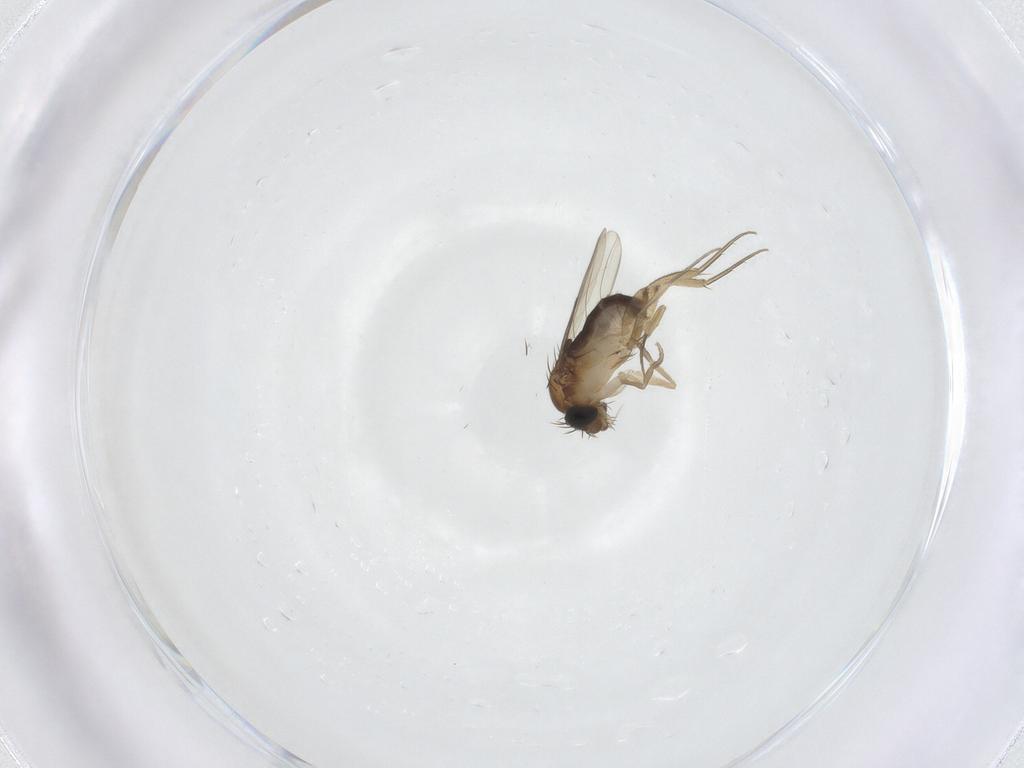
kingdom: Animalia
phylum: Arthropoda
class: Insecta
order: Diptera
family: Phoridae
